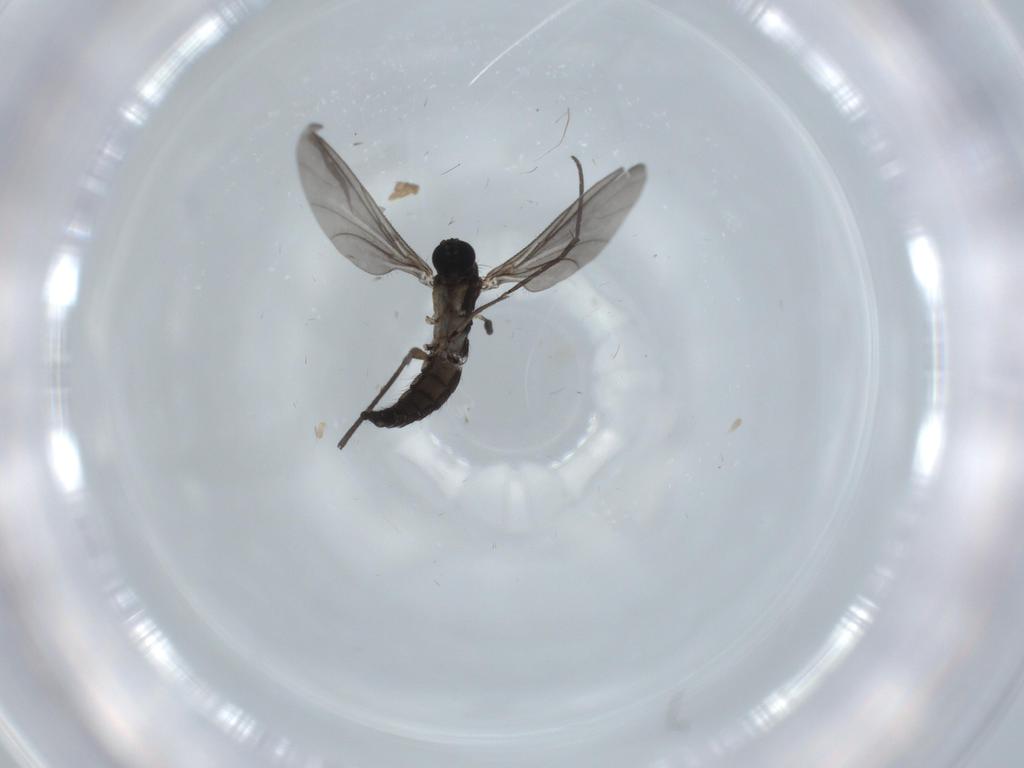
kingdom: Animalia
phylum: Arthropoda
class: Insecta
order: Diptera
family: Sciaridae
